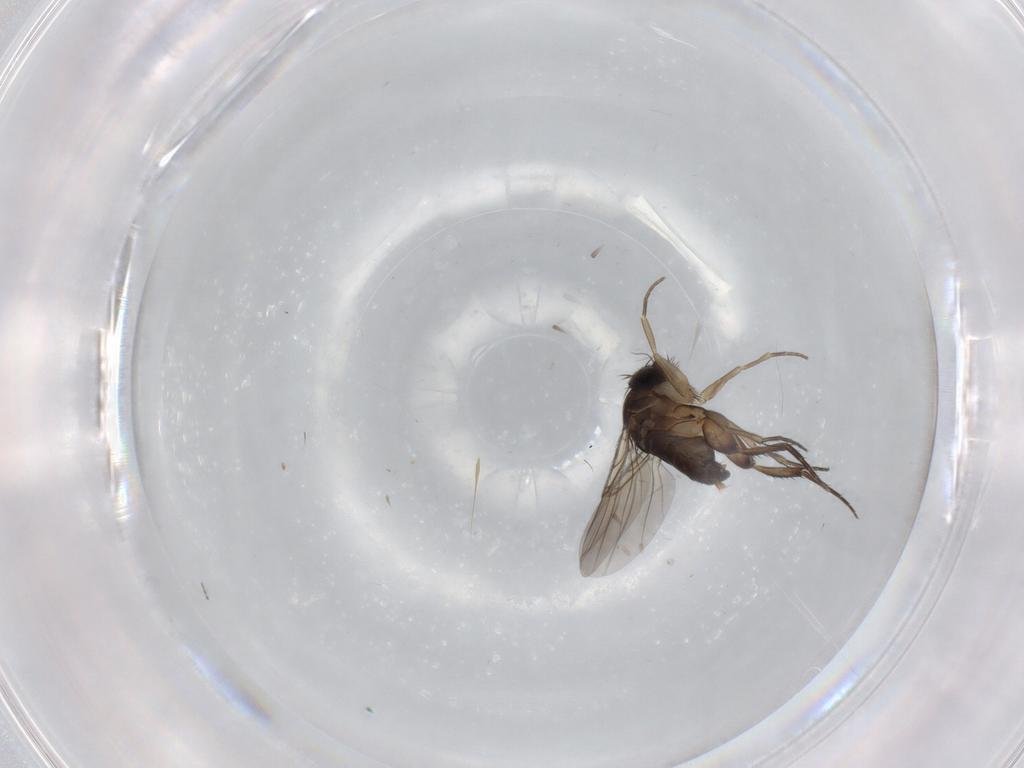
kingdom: Animalia
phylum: Arthropoda
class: Insecta
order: Diptera
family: Phoridae
